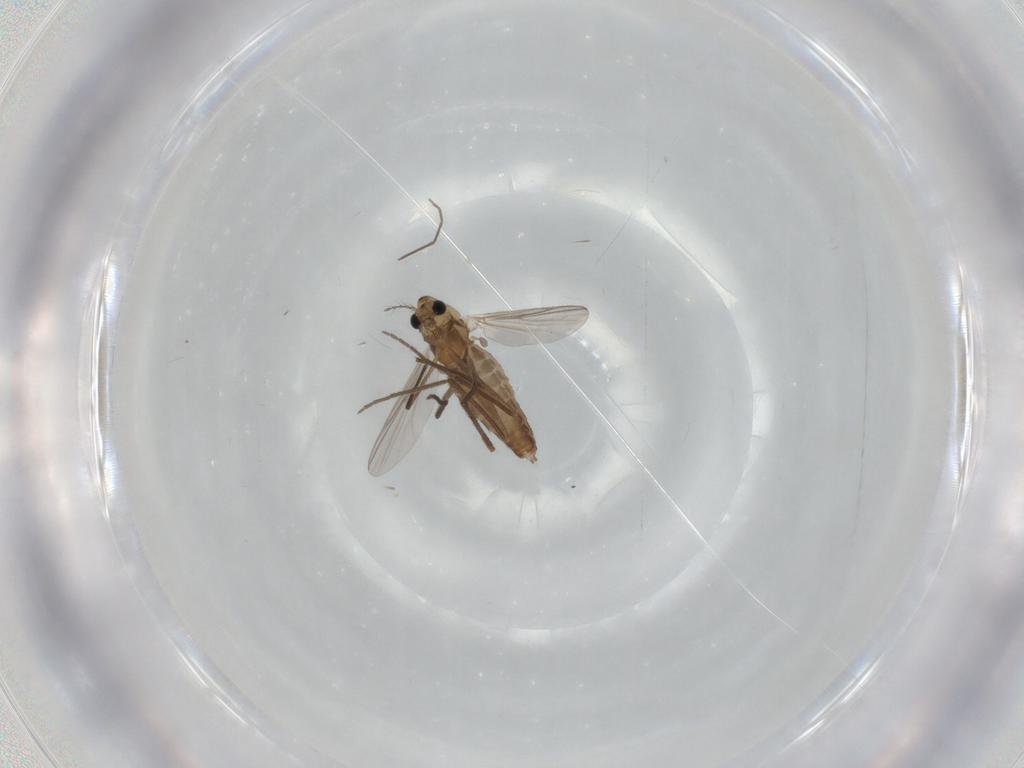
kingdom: Animalia
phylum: Arthropoda
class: Insecta
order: Diptera
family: Chironomidae
